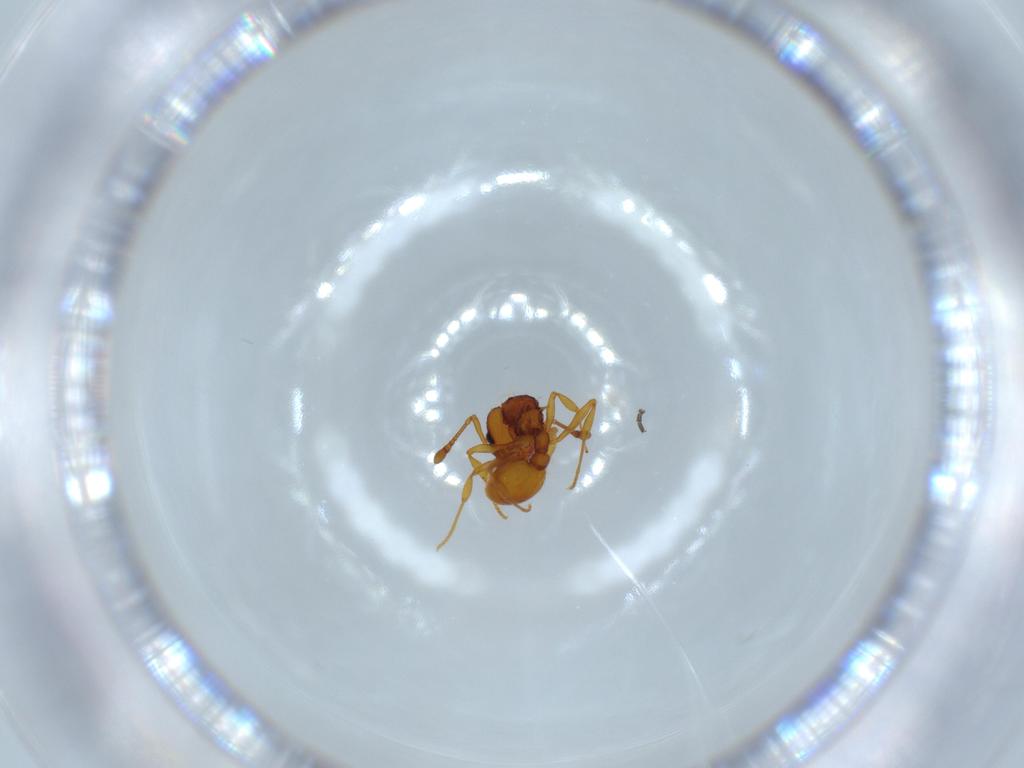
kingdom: Animalia
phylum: Arthropoda
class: Insecta
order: Hymenoptera
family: Formicidae
